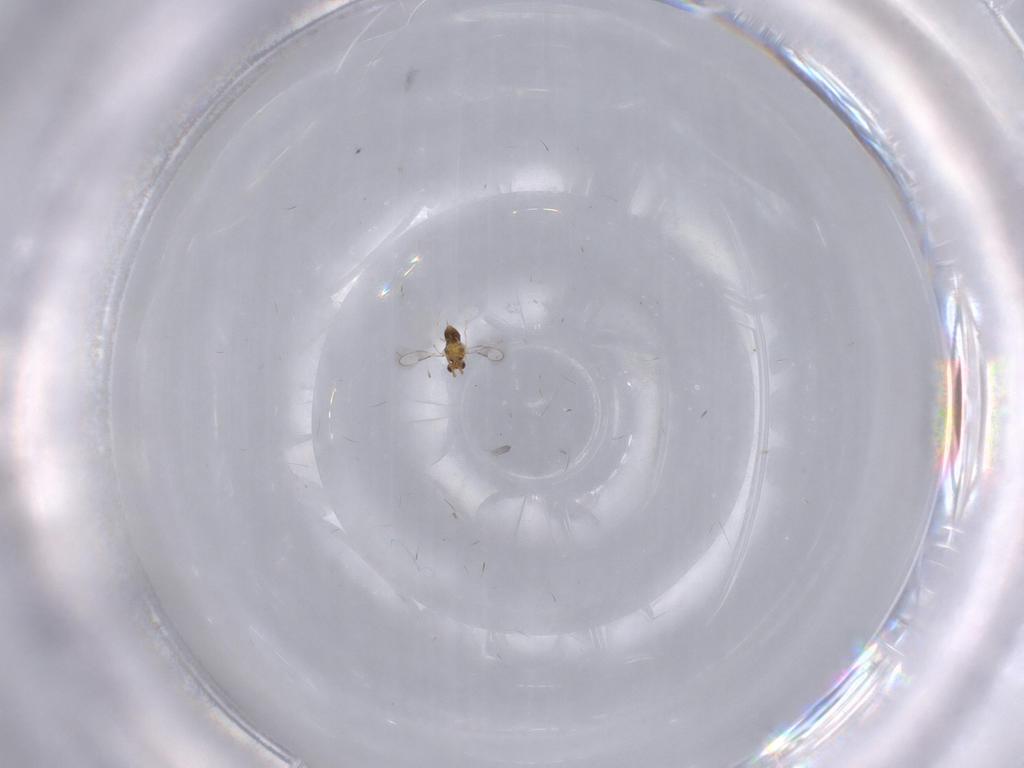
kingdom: Animalia
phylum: Arthropoda
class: Insecta
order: Hymenoptera
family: Aphelinidae
